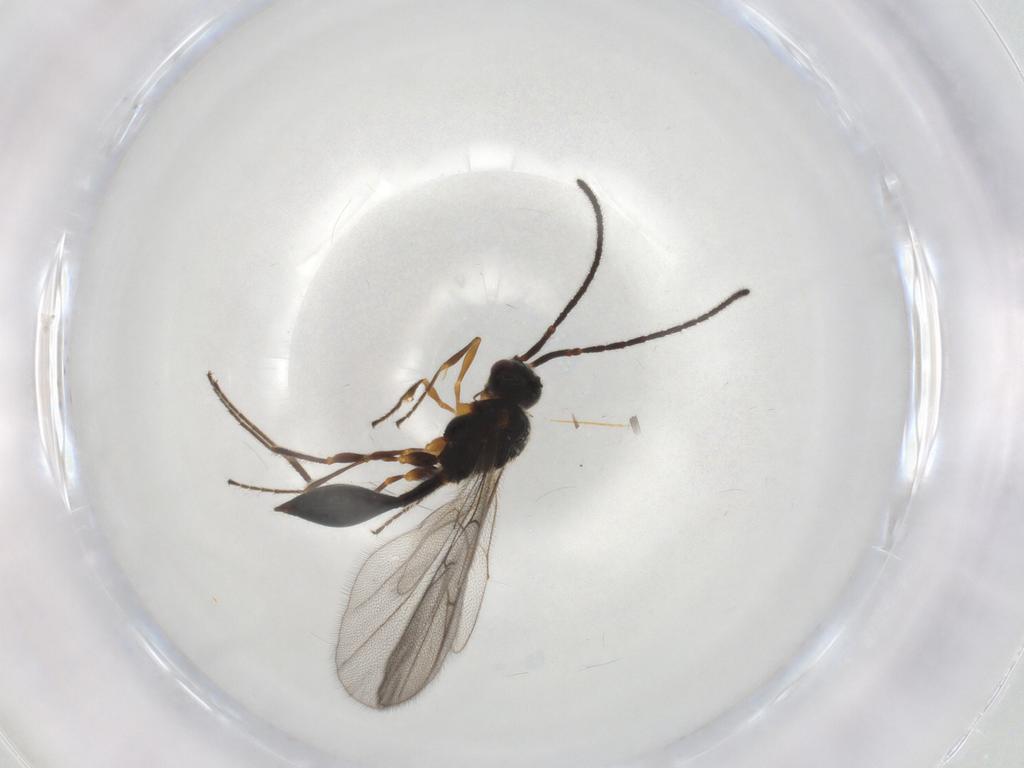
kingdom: Animalia
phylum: Arthropoda
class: Insecta
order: Hymenoptera
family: Diapriidae
